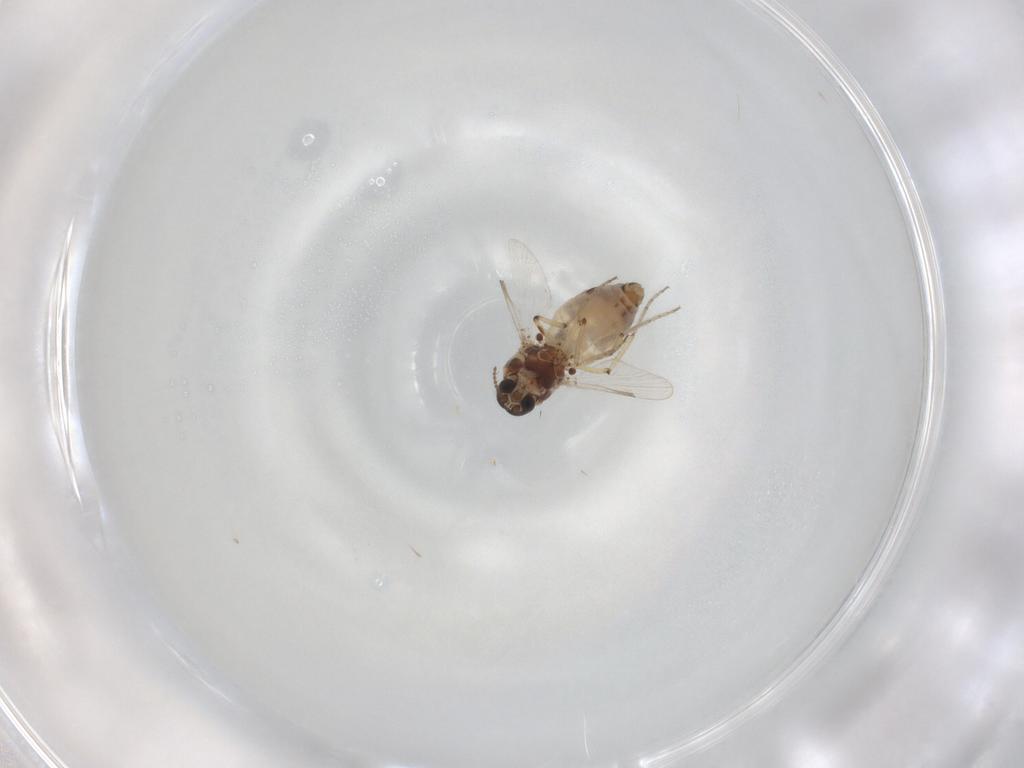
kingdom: Animalia
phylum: Arthropoda
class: Insecta
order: Diptera
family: Ceratopogonidae
